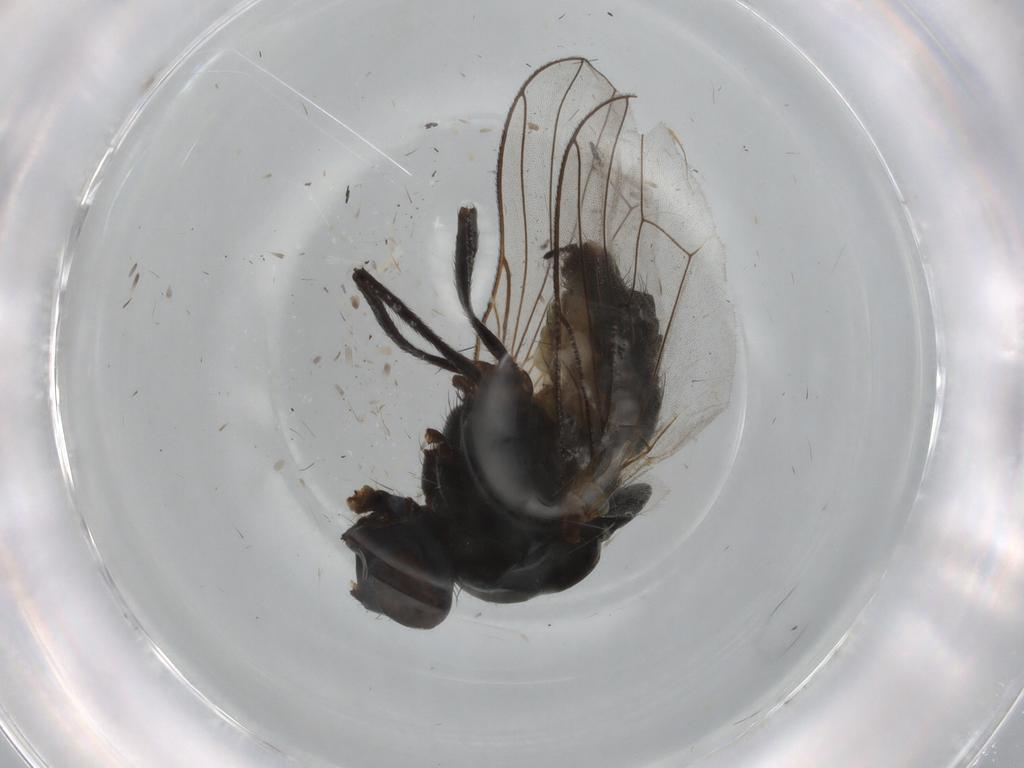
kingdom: Animalia
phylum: Arthropoda
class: Insecta
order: Diptera
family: Anthomyiidae
